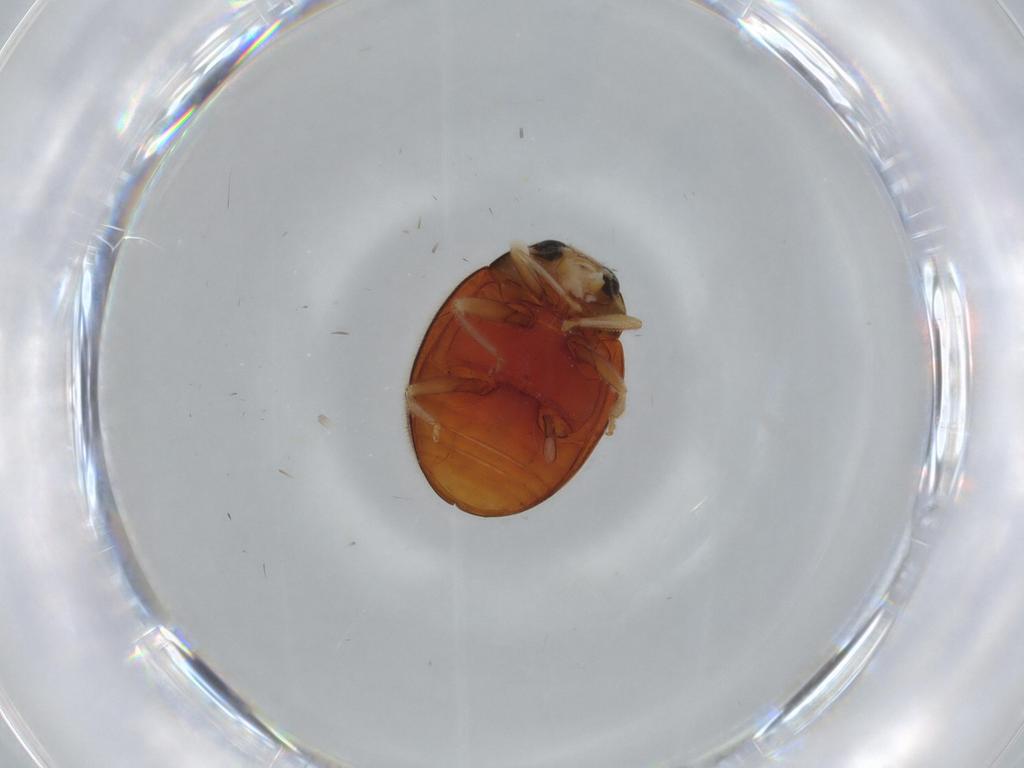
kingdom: Animalia
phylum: Arthropoda
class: Insecta
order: Coleoptera
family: Coccinellidae
